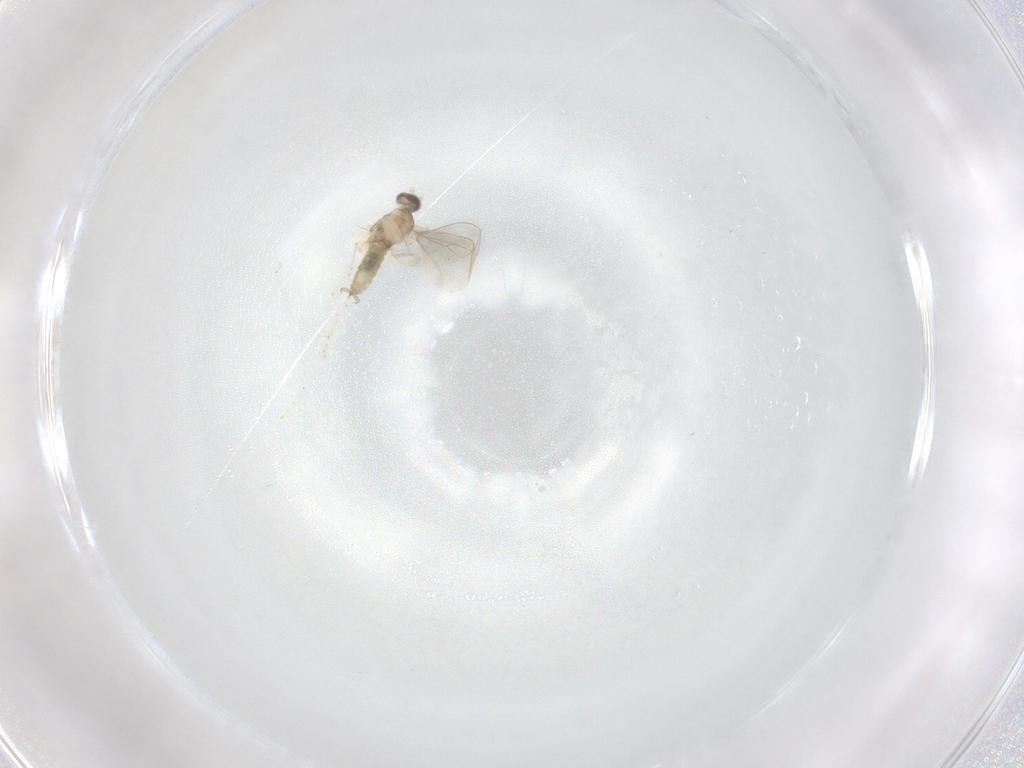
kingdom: Animalia
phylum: Arthropoda
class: Insecta
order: Diptera
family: Cecidomyiidae
